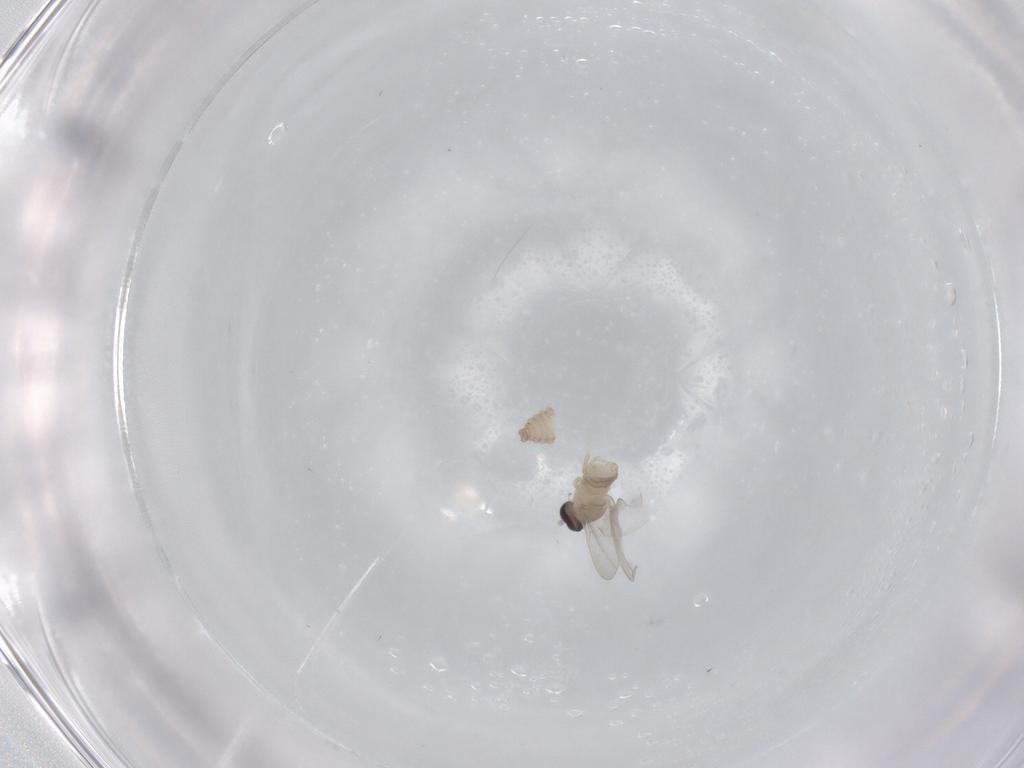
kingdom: Animalia
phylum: Arthropoda
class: Insecta
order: Diptera
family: Cecidomyiidae
